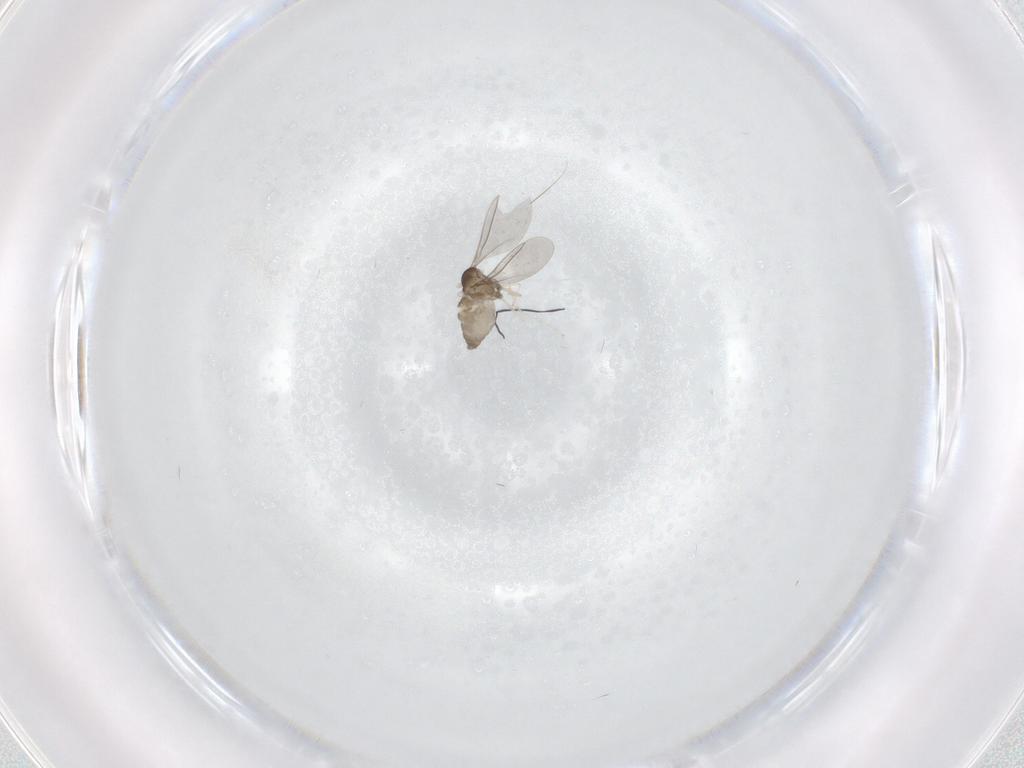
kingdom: Animalia
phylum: Arthropoda
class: Insecta
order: Diptera
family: Cecidomyiidae
